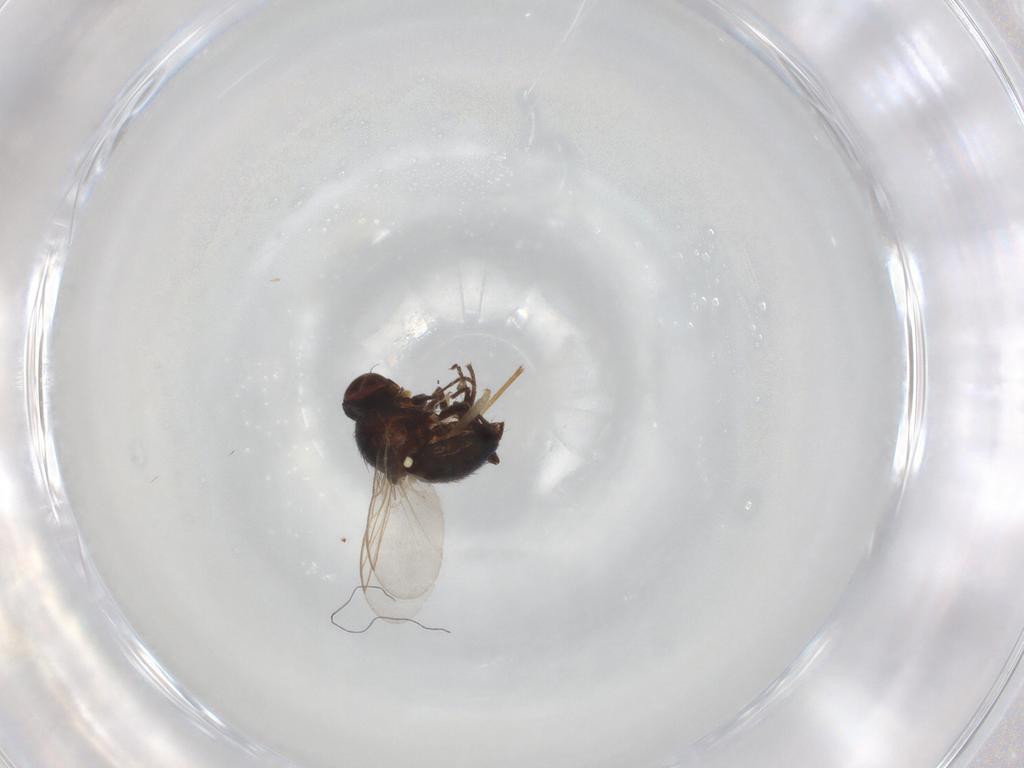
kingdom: Animalia
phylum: Arthropoda
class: Insecta
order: Diptera
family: Dolichopodidae
